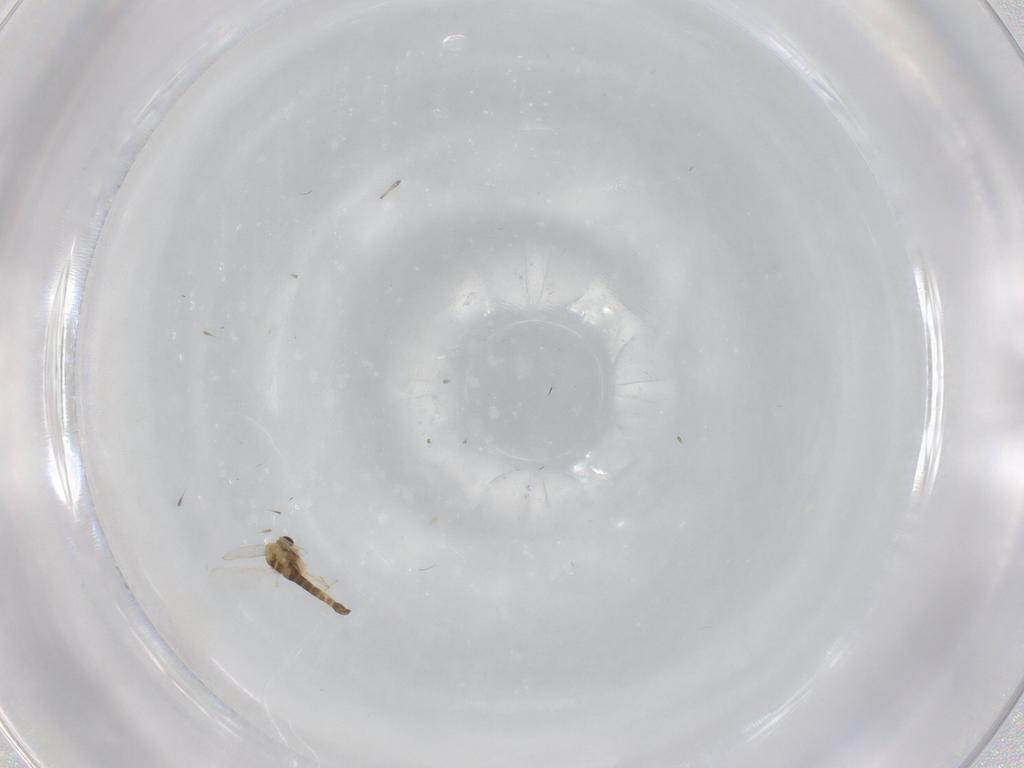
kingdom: Animalia
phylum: Arthropoda
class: Insecta
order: Diptera
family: Chironomidae
